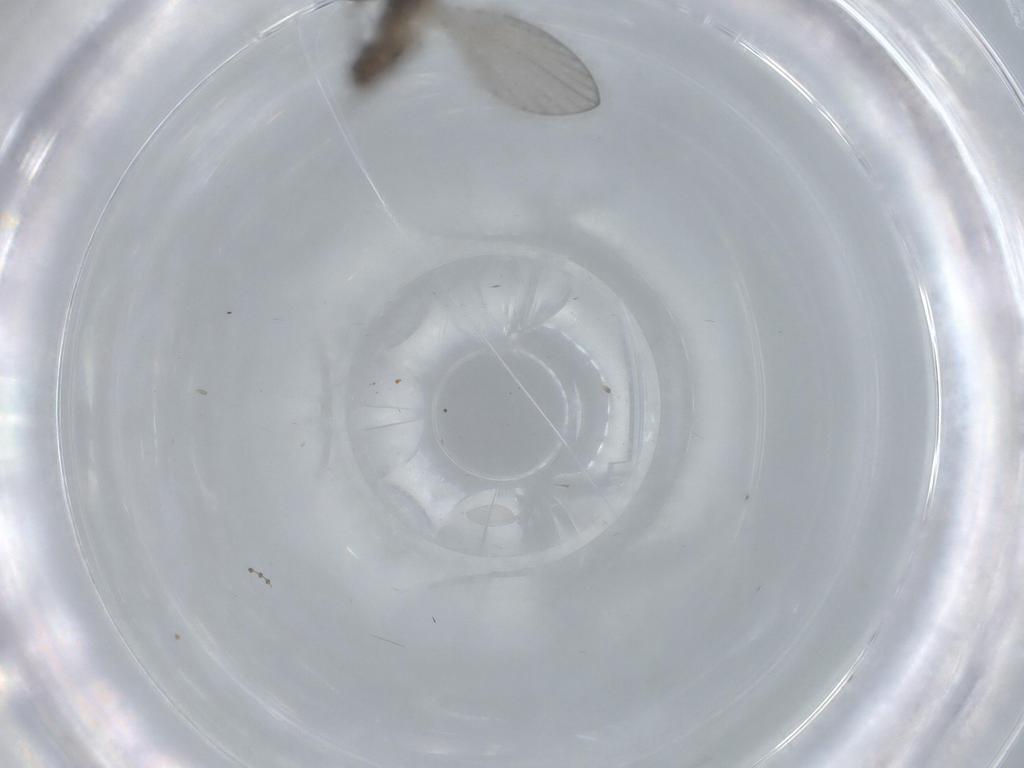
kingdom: Animalia
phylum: Arthropoda
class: Insecta
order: Diptera
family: Psychodidae
